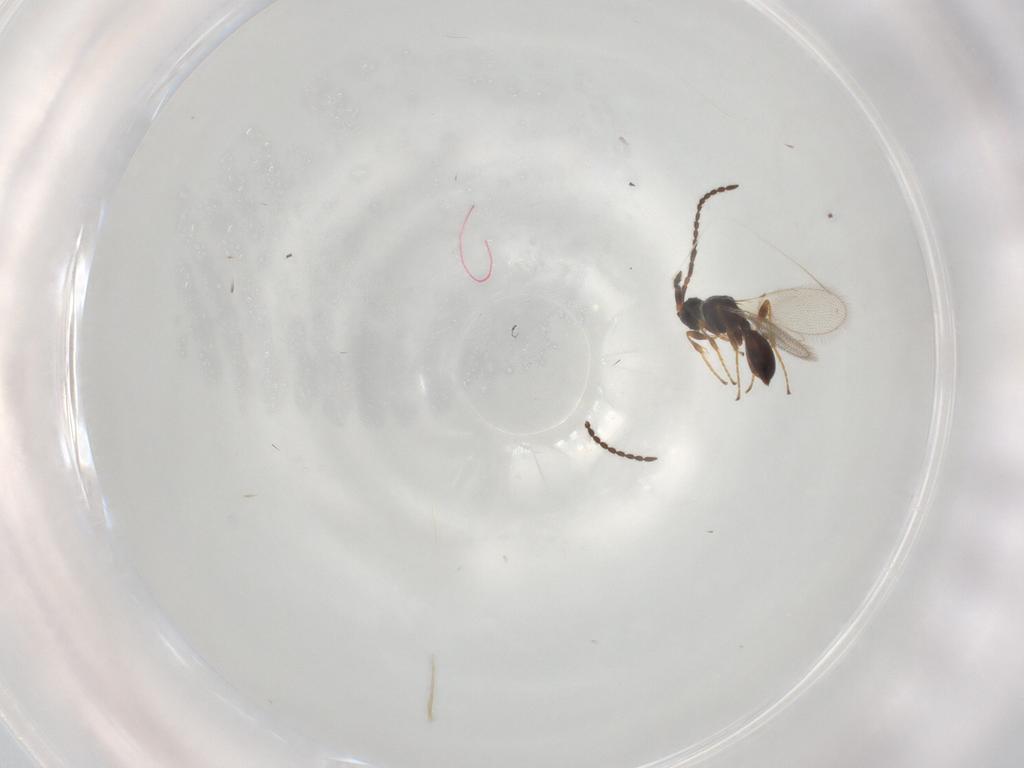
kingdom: Animalia
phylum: Arthropoda
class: Insecta
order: Hymenoptera
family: Diapriidae
